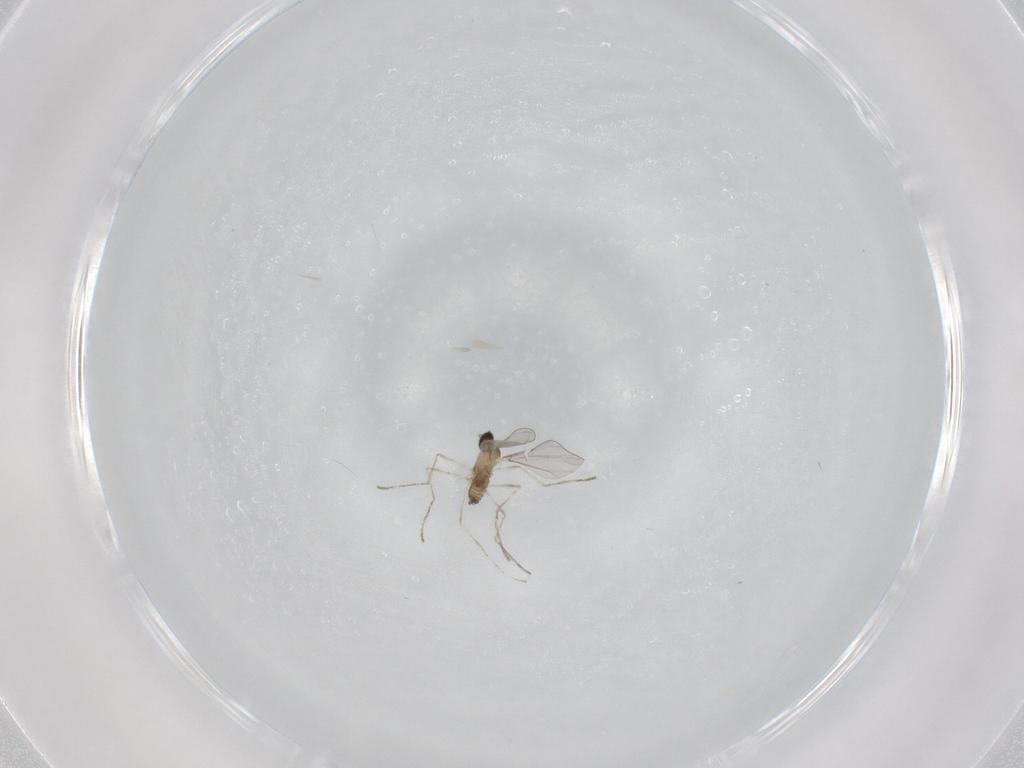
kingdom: Animalia
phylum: Arthropoda
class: Insecta
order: Diptera
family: Cecidomyiidae
